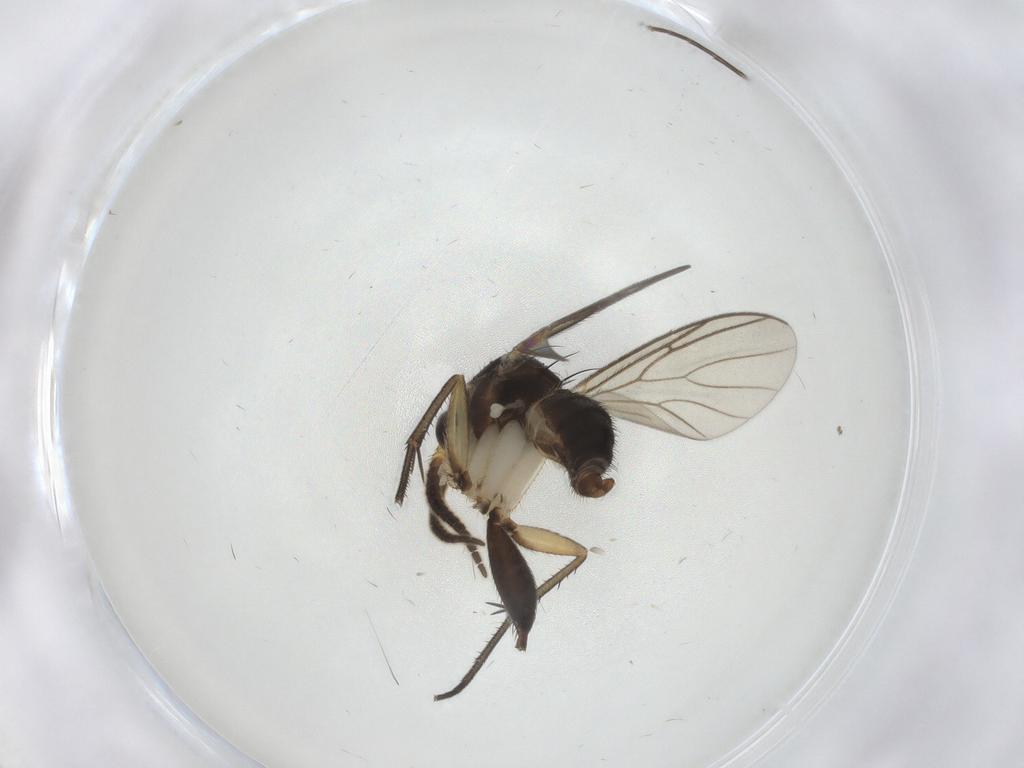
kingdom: Animalia
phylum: Arthropoda
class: Insecta
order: Diptera
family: Mycetophilidae
